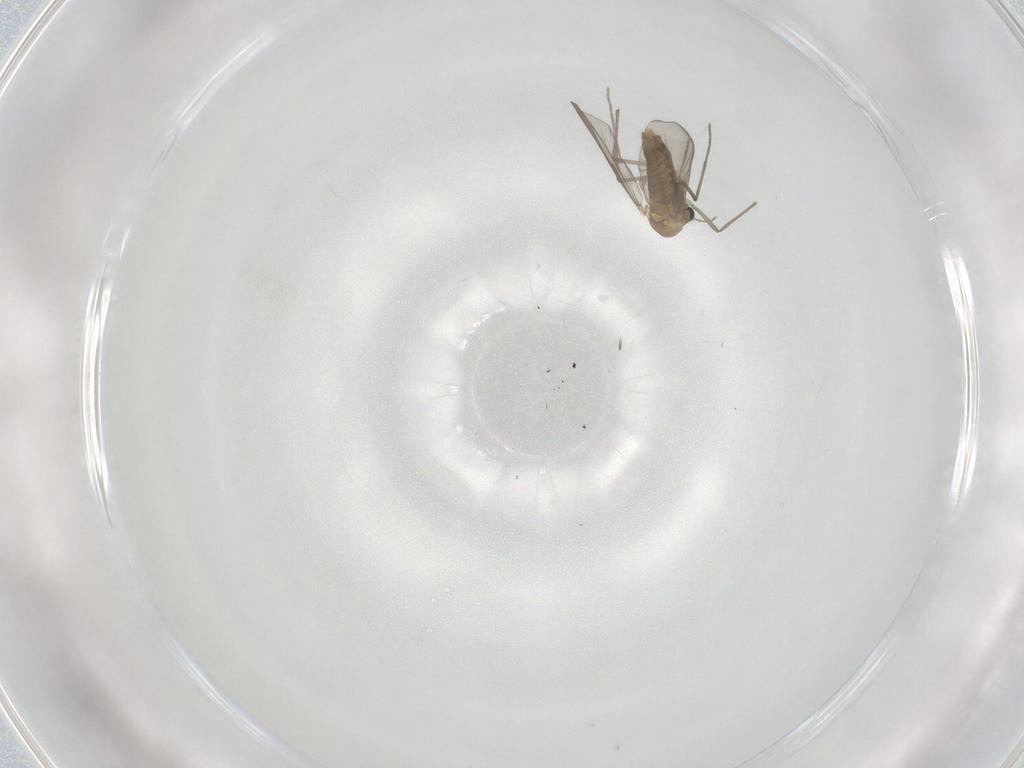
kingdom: Animalia
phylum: Arthropoda
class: Insecta
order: Diptera
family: Chironomidae
